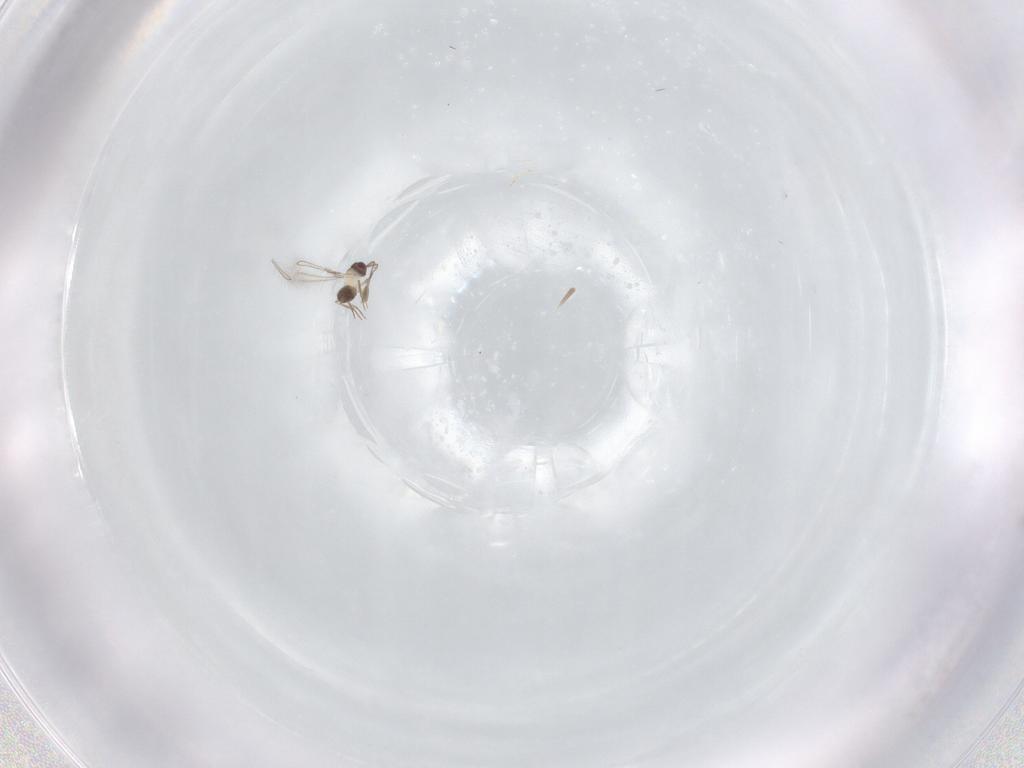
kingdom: Animalia
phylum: Arthropoda
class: Insecta
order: Hymenoptera
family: Mymaridae
